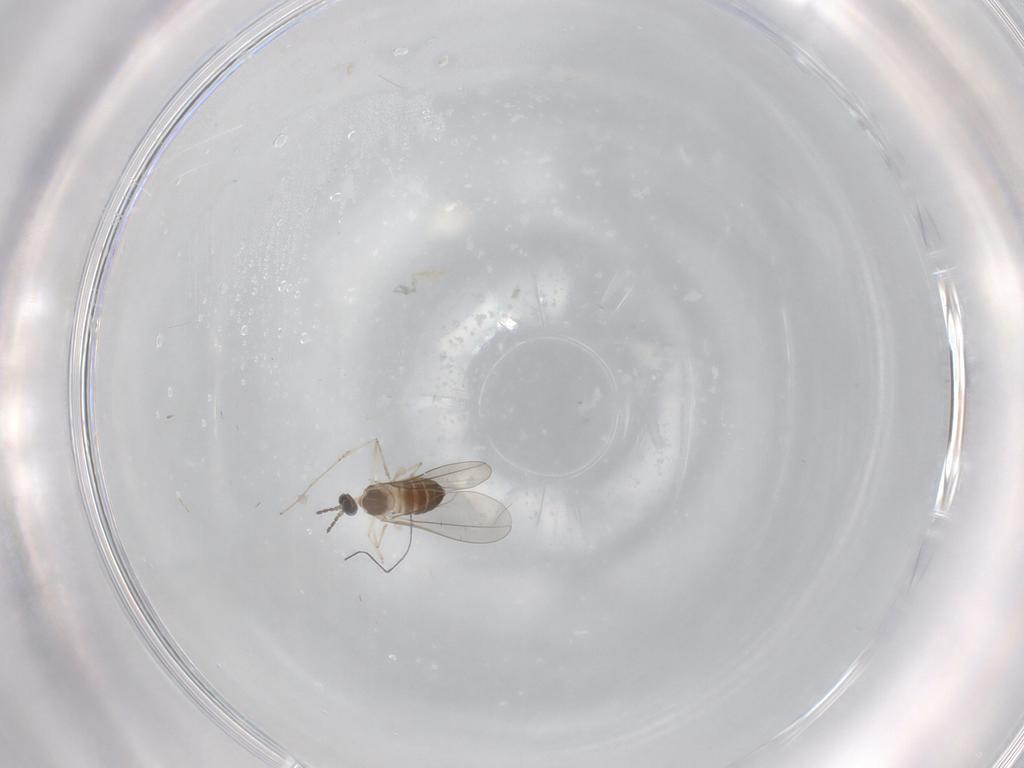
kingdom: Animalia
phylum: Arthropoda
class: Insecta
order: Diptera
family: Cecidomyiidae
